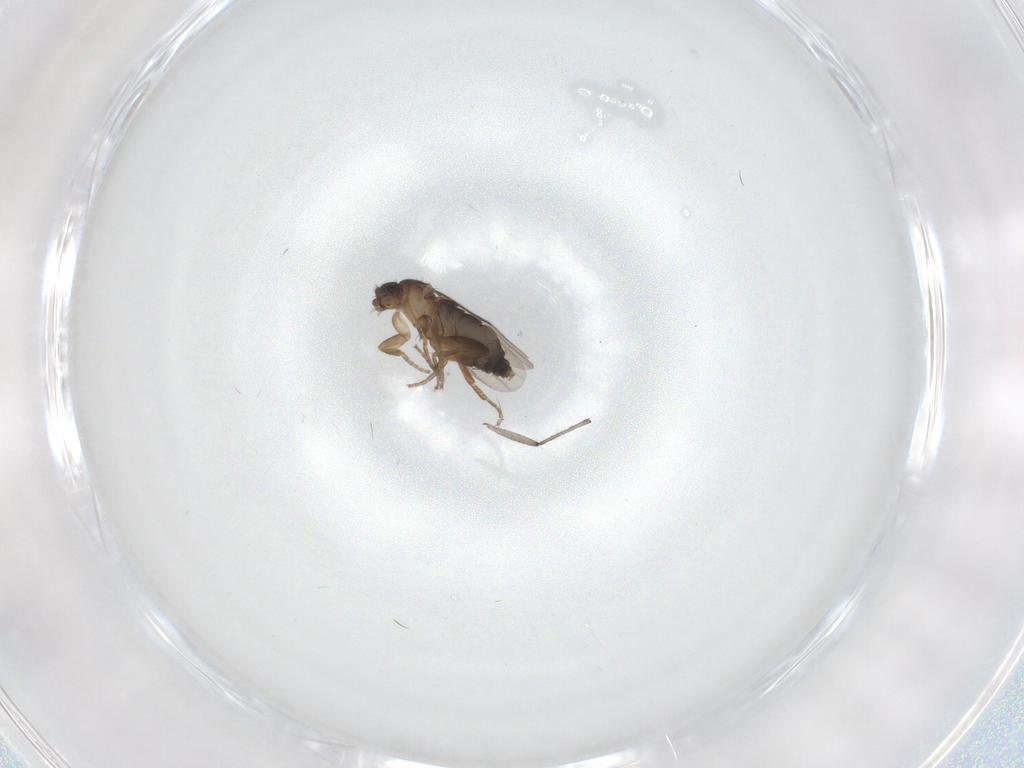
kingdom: Animalia
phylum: Arthropoda
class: Insecta
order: Diptera
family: Sciaridae
